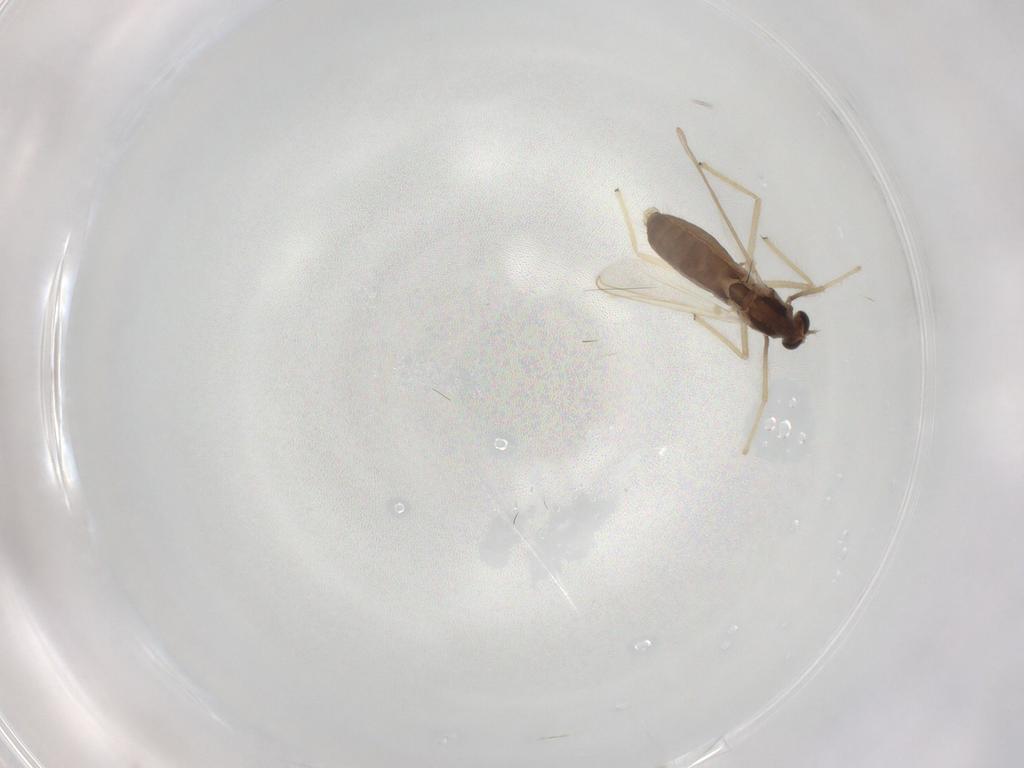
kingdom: Animalia
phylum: Arthropoda
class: Insecta
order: Diptera
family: Chironomidae
